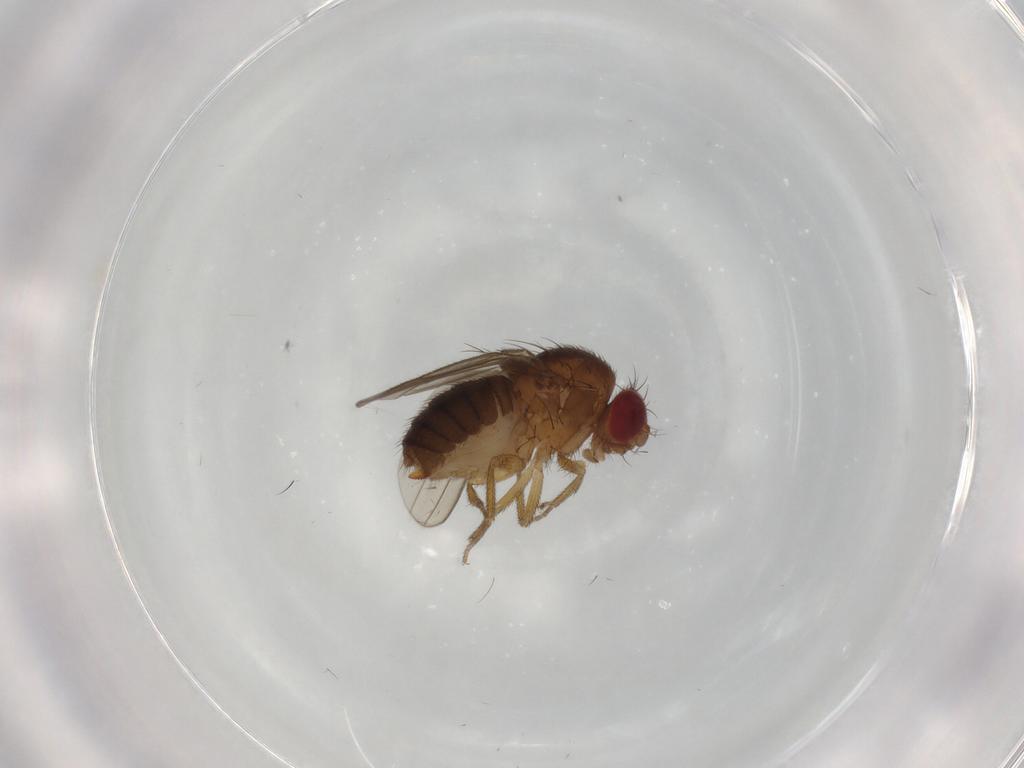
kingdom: Animalia
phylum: Arthropoda
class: Insecta
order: Diptera
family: Drosophilidae
